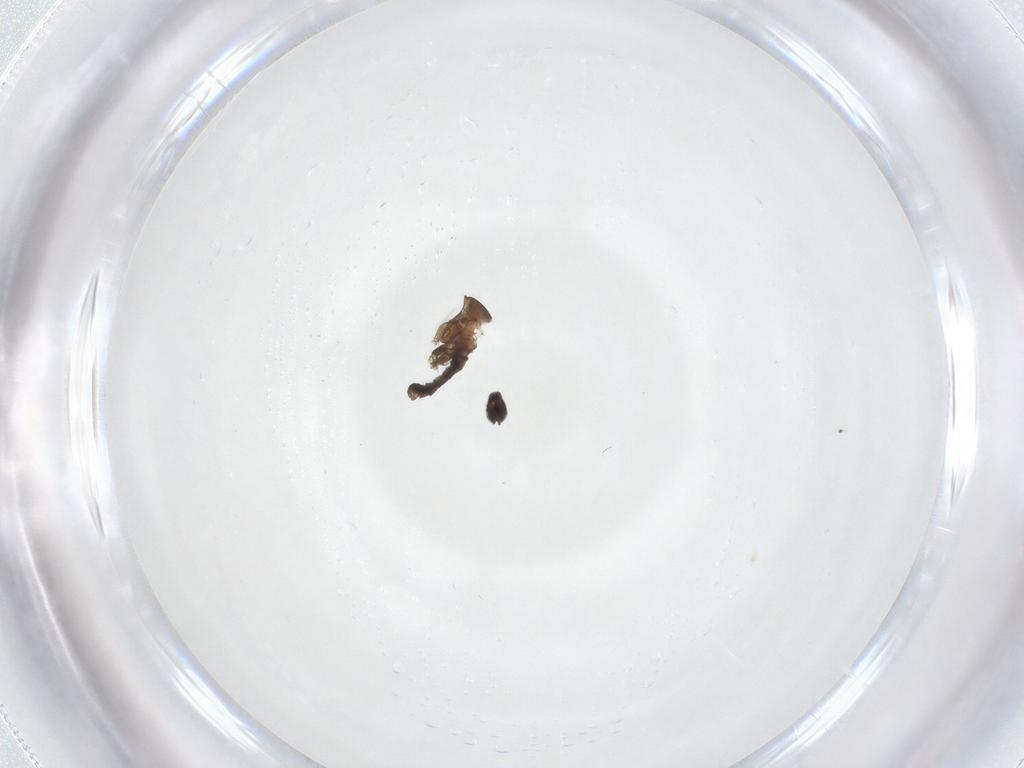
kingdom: Animalia
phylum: Arthropoda
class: Insecta
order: Diptera
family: Tabanidae
